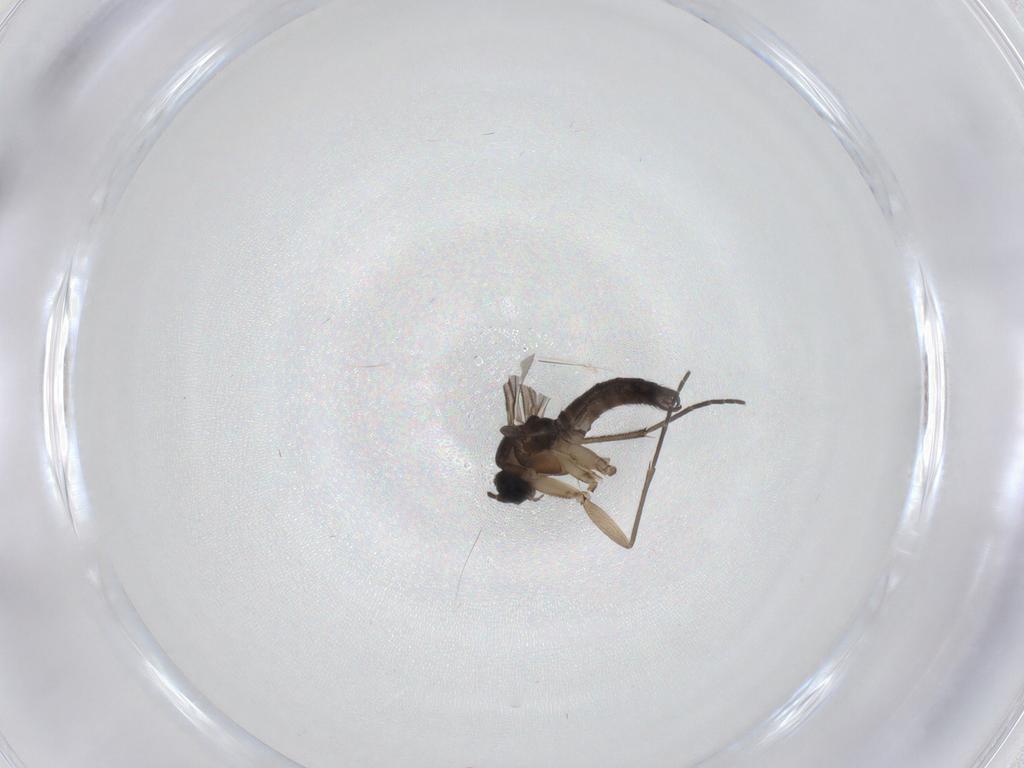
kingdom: Animalia
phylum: Arthropoda
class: Insecta
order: Diptera
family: Sciaridae
